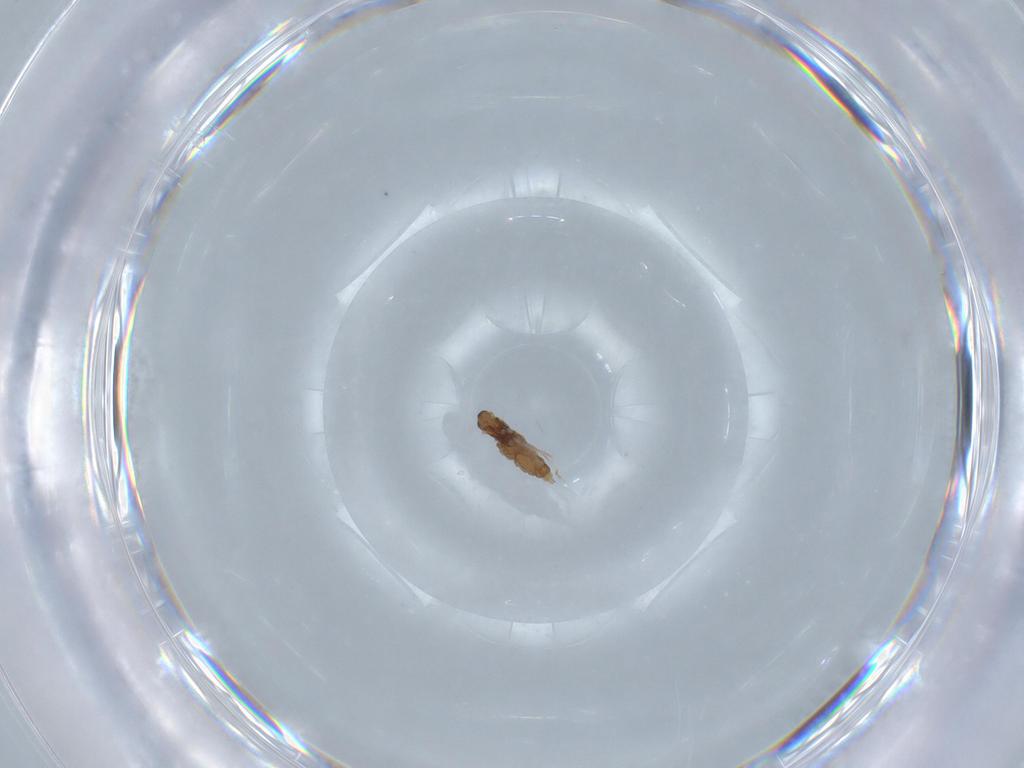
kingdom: Animalia
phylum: Arthropoda
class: Insecta
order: Diptera
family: Cecidomyiidae
